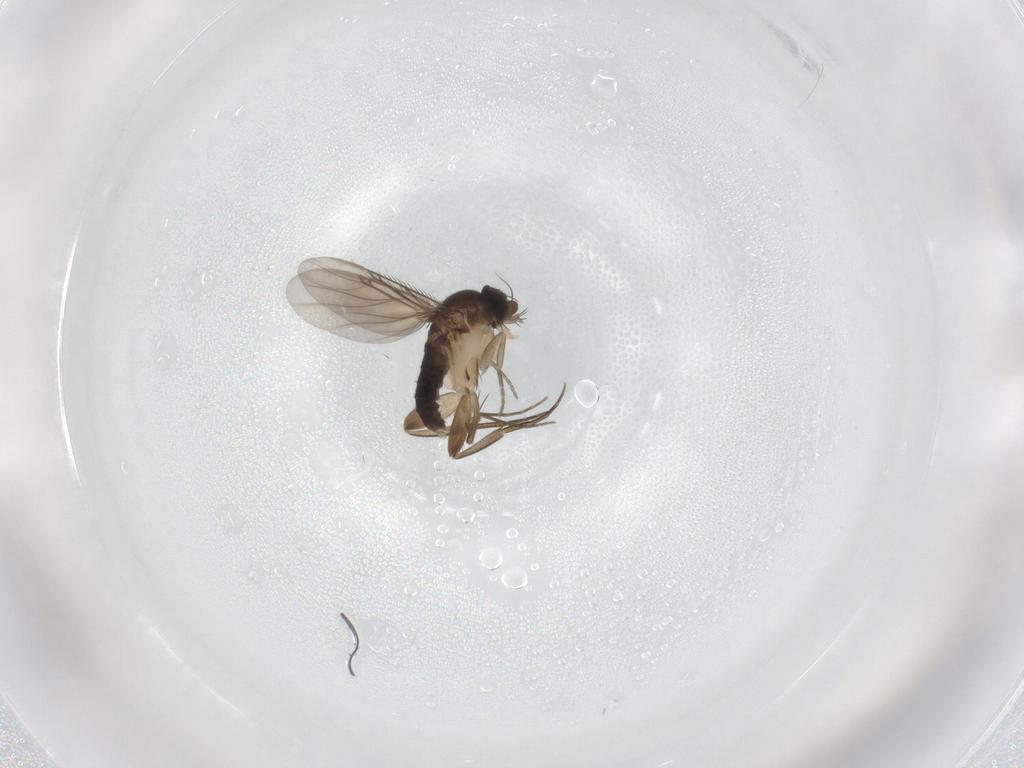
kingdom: Animalia
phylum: Arthropoda
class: Insecta
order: Diptera
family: Phoridae
